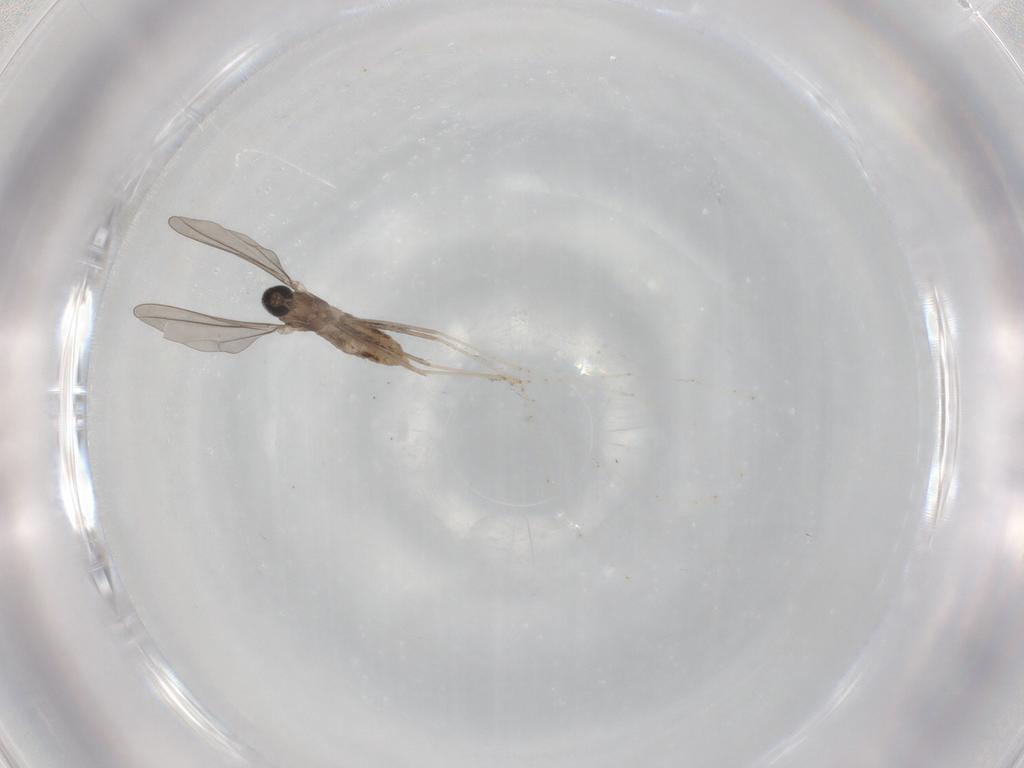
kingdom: Animalia
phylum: Arthropoda
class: Insecta
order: Diptera
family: Cecidomyiidae
